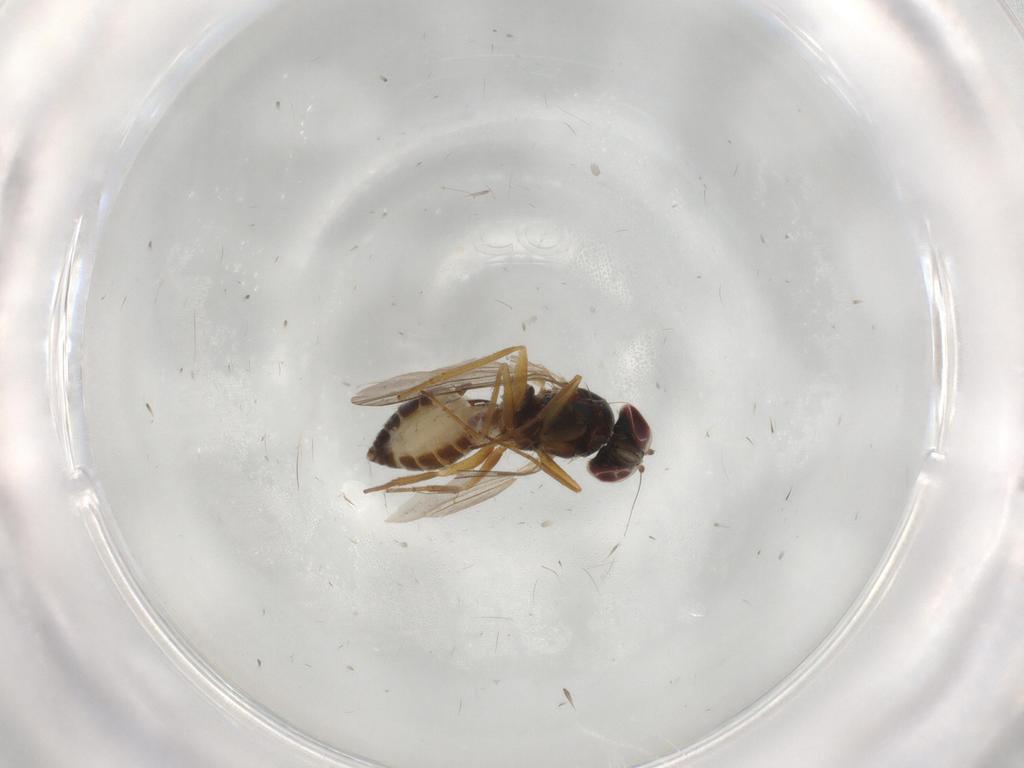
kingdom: Animalia
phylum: Arthropoda
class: Insecta
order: Diptera
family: Dolichopodidae
